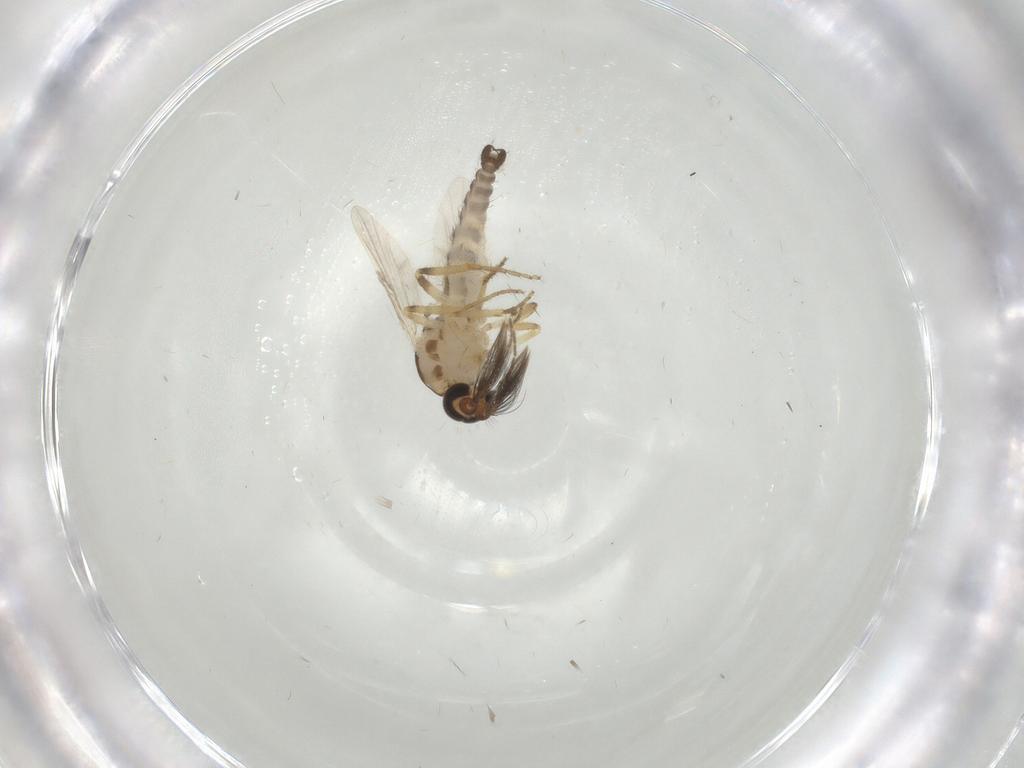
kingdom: Animalia
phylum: Arthropoda
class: Insecta
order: Diptera
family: Ceratopogonidae
